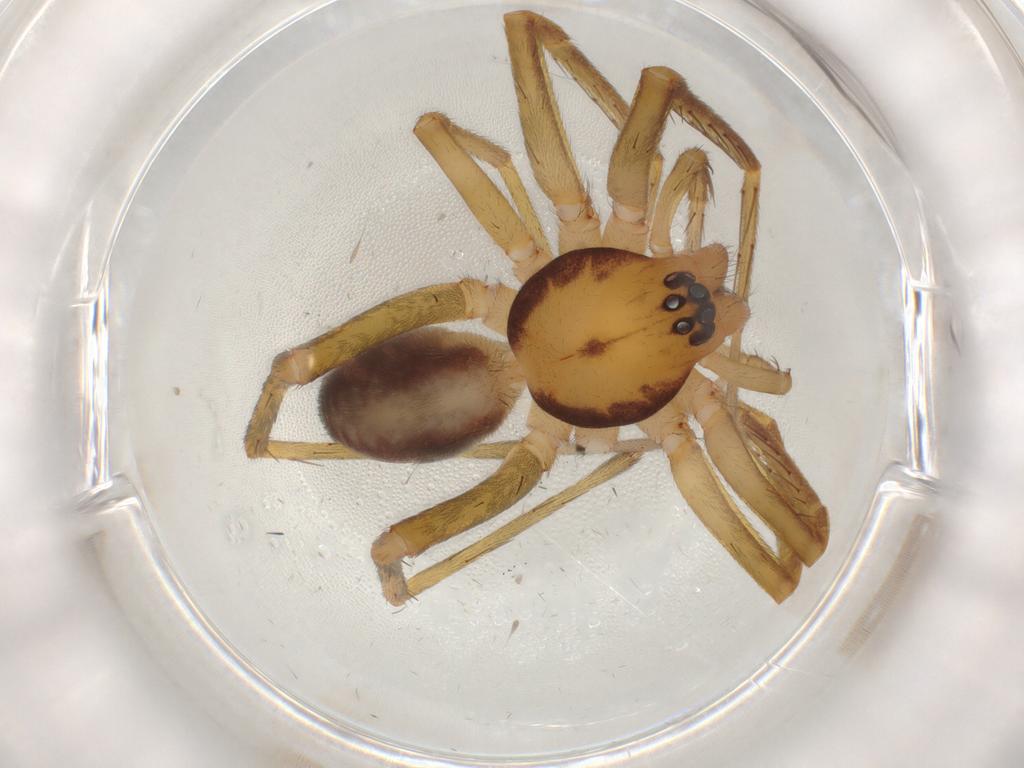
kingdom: Animalia
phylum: Arthropoda
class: Arachnida
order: Araneae
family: Corinnidae
